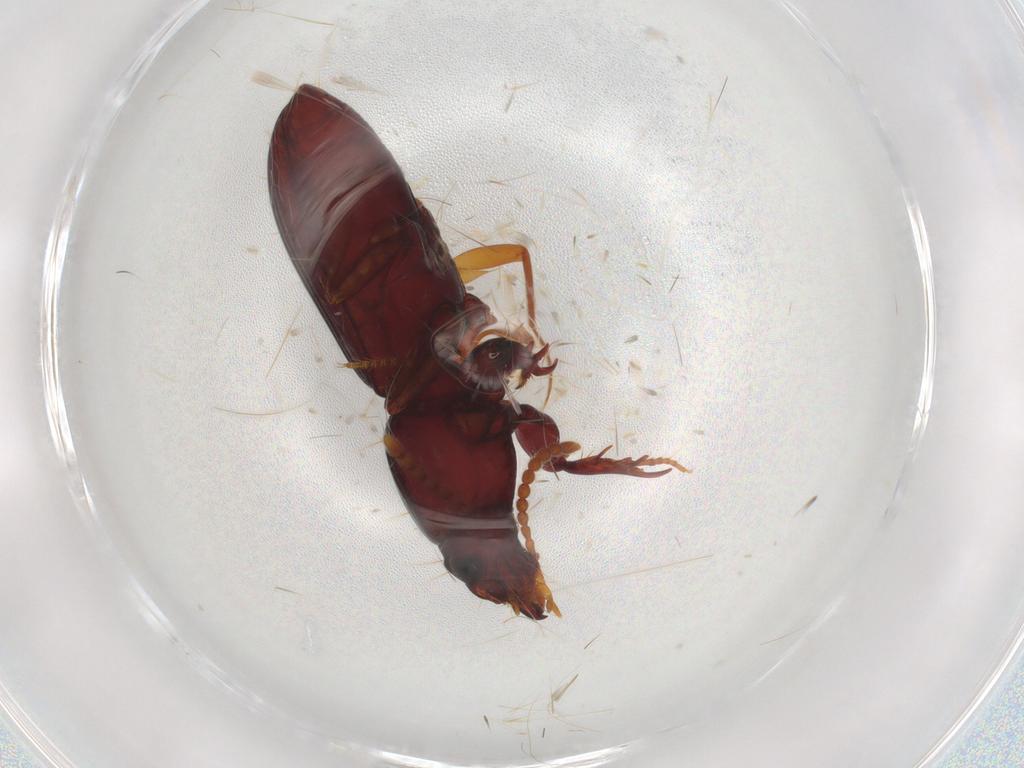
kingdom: Animalia
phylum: Arthropoda
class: Insecta
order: Coleoptera
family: Carabidae
